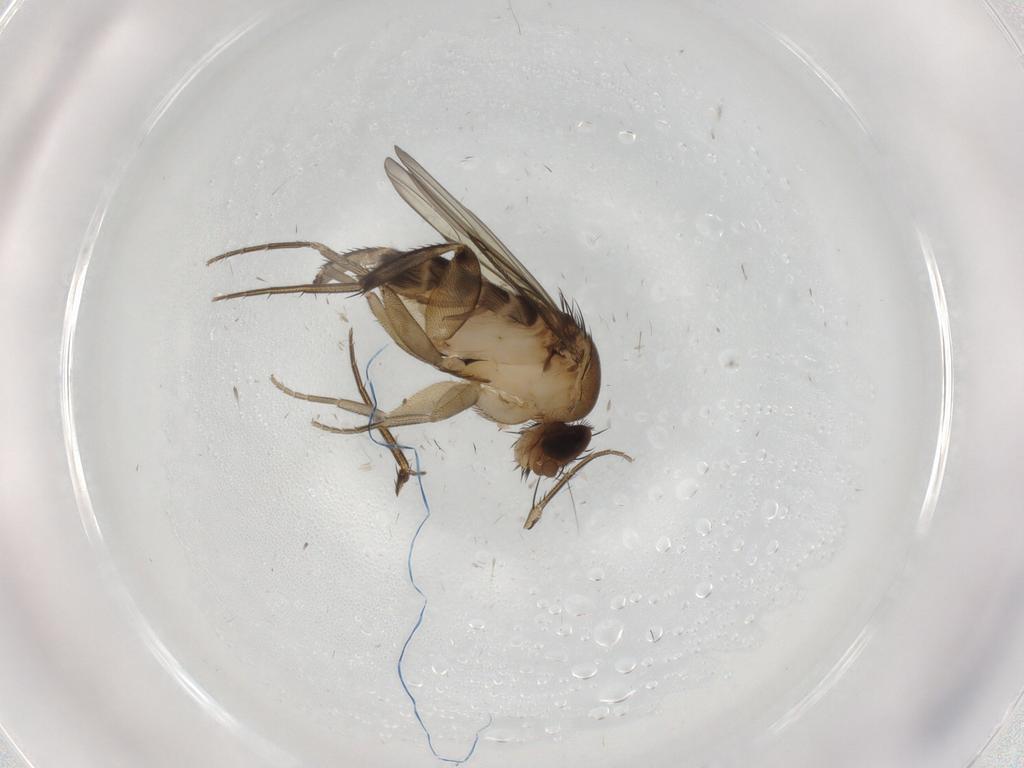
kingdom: Animalia
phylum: Arthropoda
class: Insecta
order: Diptera
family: Phoridae
